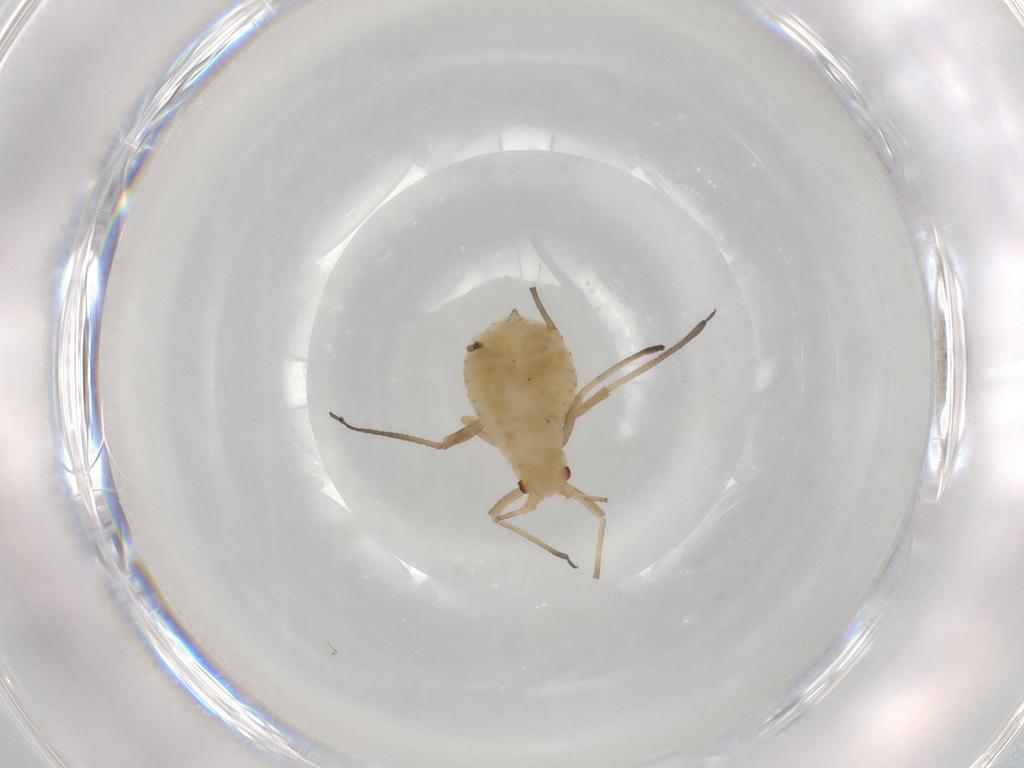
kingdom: Animalia
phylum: Arthropoda
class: Insecta
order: Hemiptera
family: Aphididae
